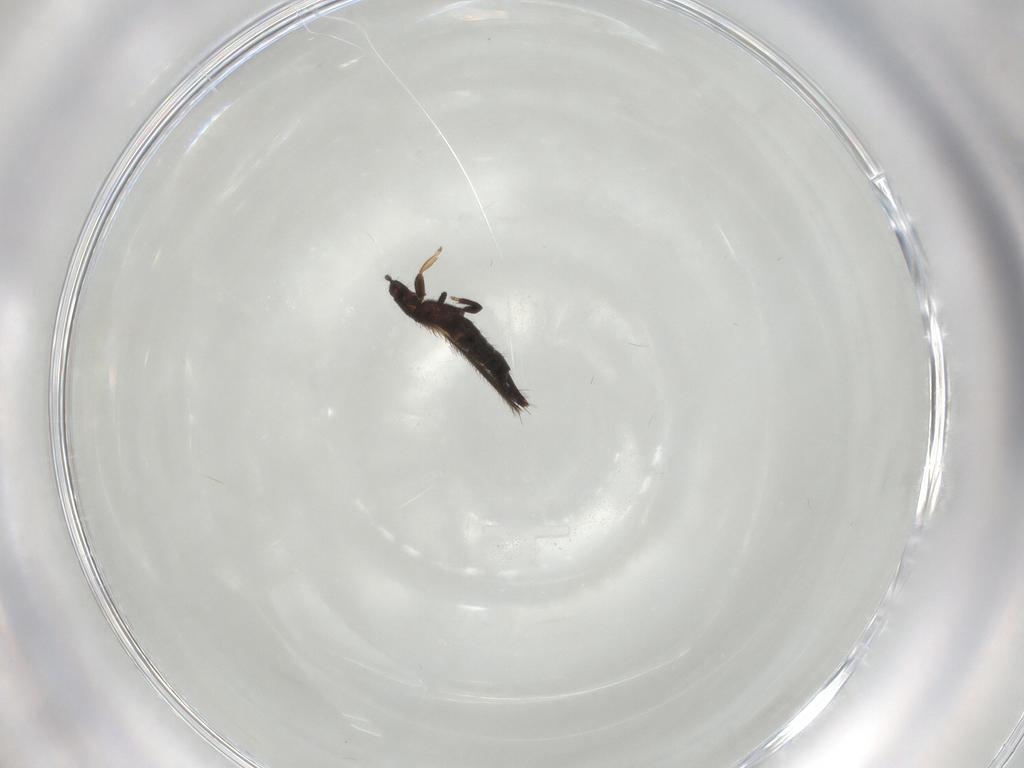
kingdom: Animalia
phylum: Arthropoda
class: Insecta
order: Thysanoptera
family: Thripidae
